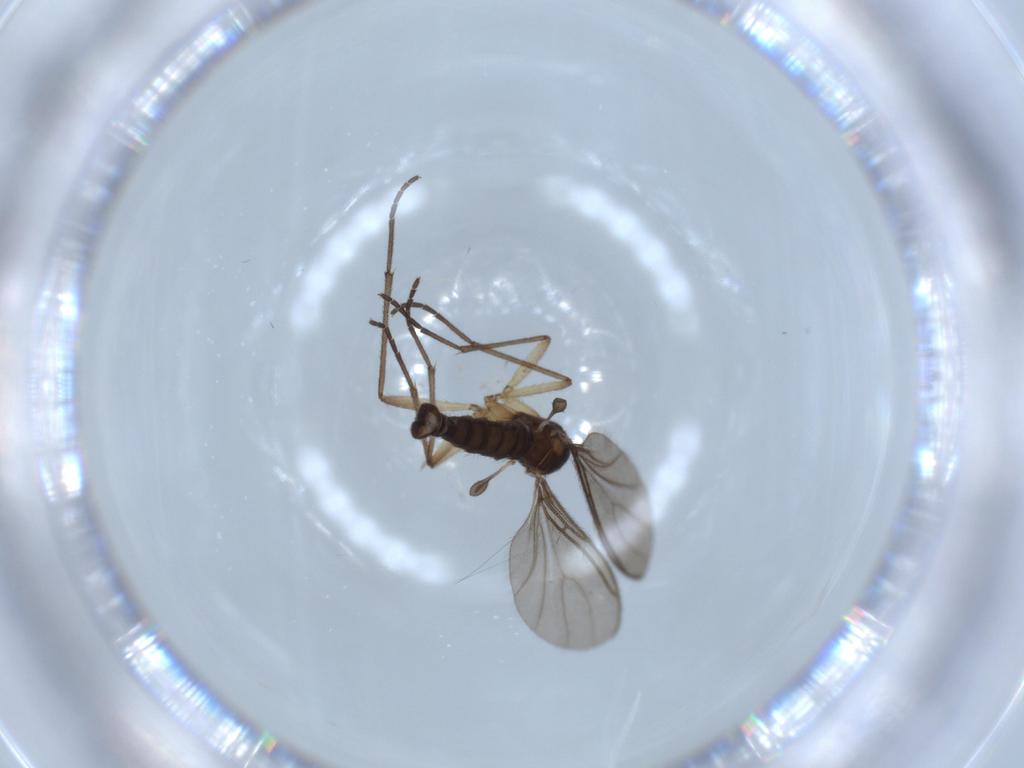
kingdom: Animalia
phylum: Arthropoda
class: Insecta
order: Diptera
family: Sciaridae
